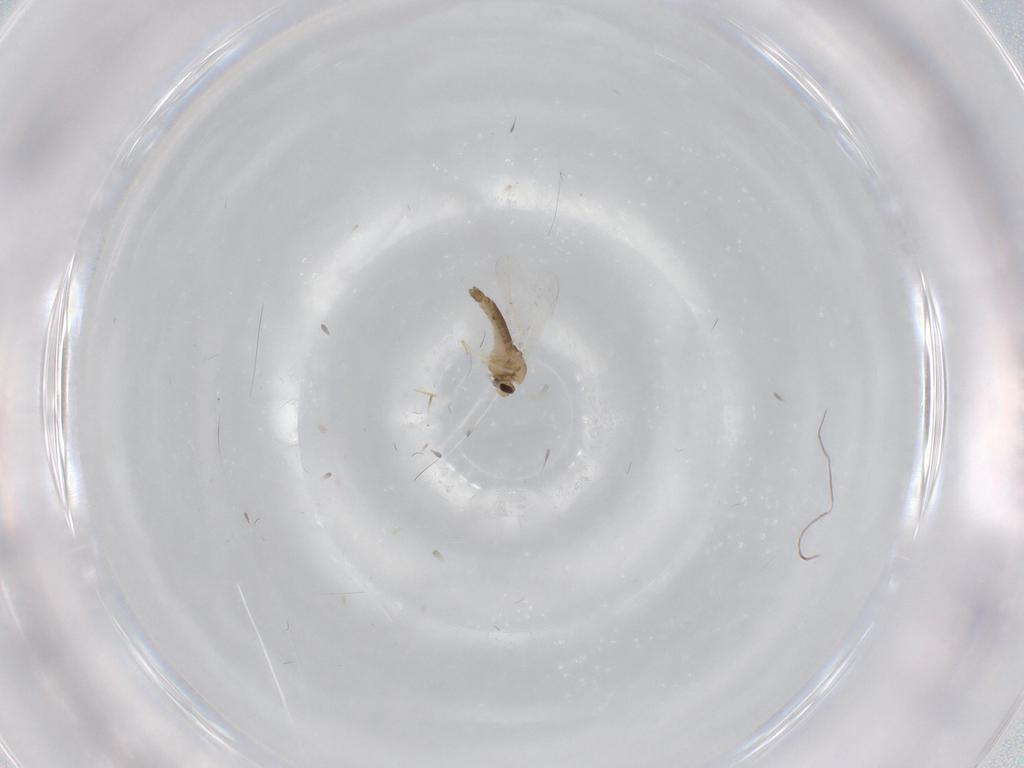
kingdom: Animalia
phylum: Arthropoda
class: Insecta
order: Diptera
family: Chironomidae
